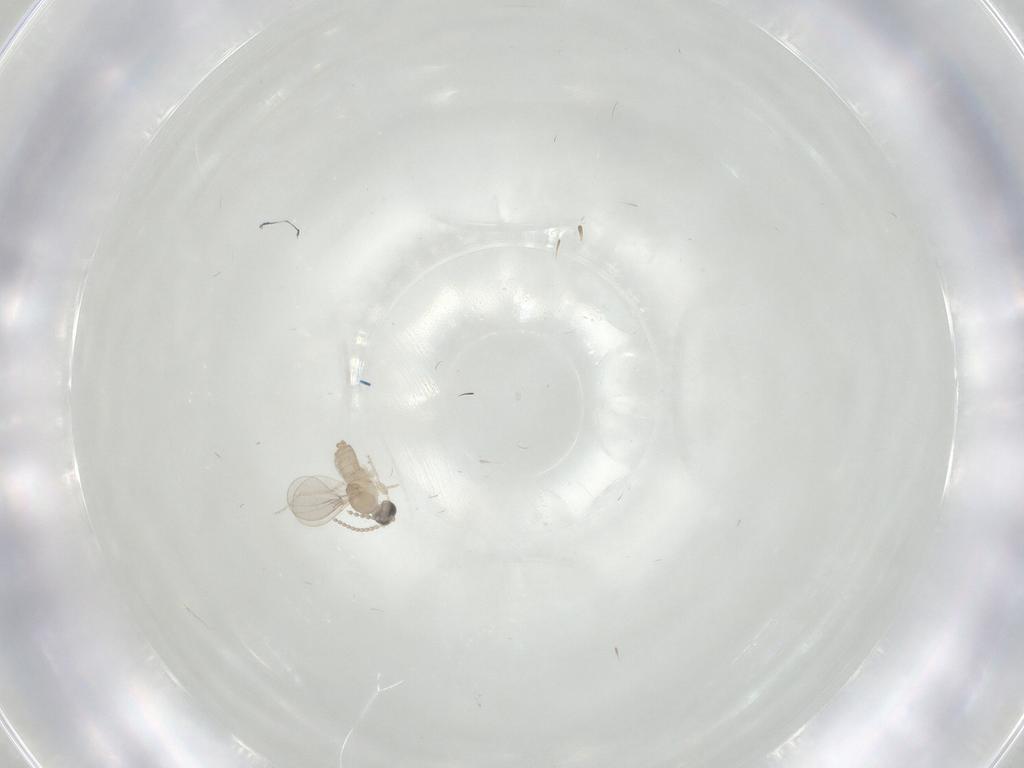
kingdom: Animalia
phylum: Arthropoda
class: Insecta
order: Diptera
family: Cecidomyiidae
